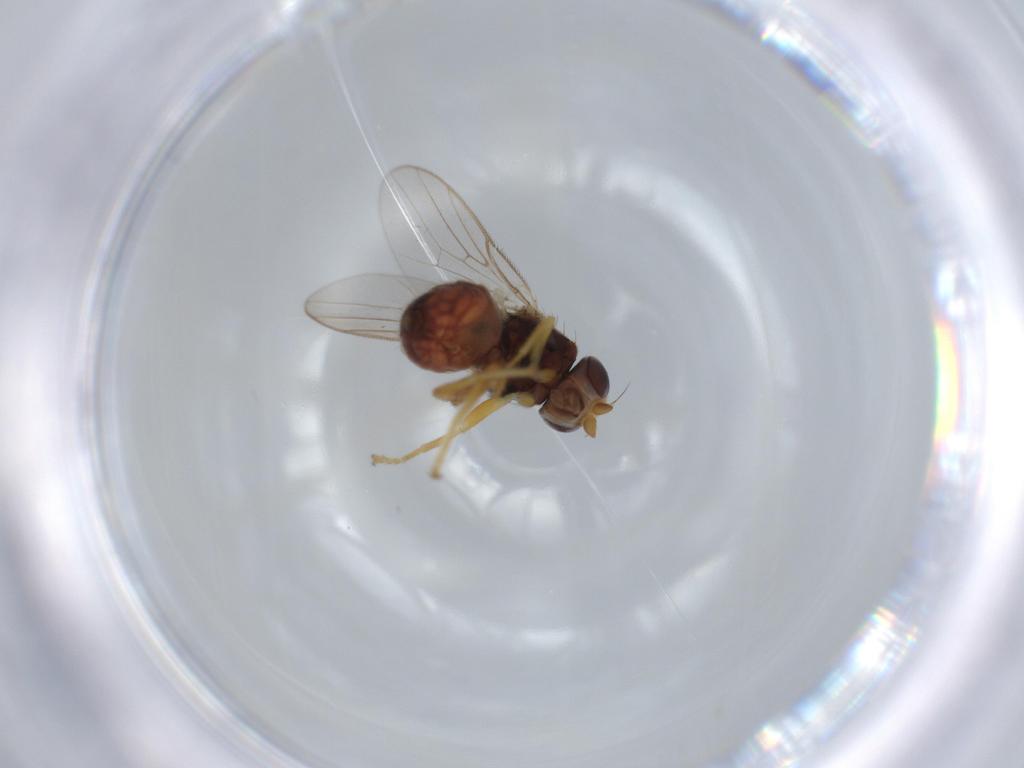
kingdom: Animalia
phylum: Arthropoda
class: Insecta
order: Diptera
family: Chloropidae
